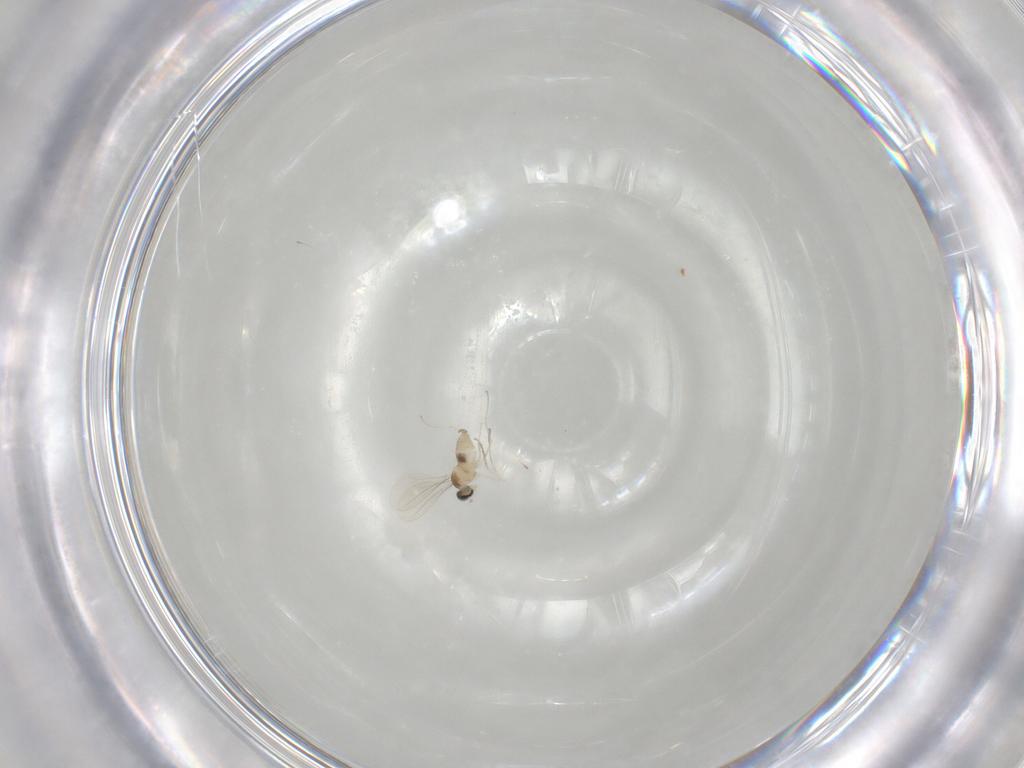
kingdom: Animalia
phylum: Arthropoda
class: Insecta
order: Diptera
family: Cecidomyiidae
